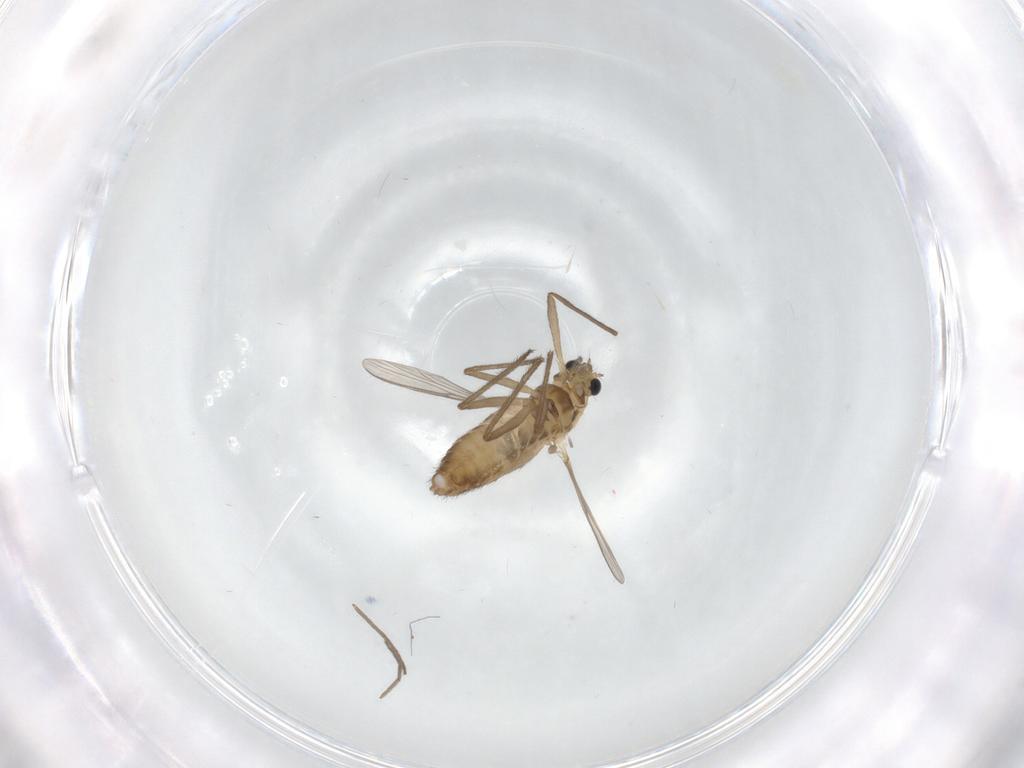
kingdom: Animalia
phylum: Arthropoda
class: Insecta
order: Diptera
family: Chironomidae
